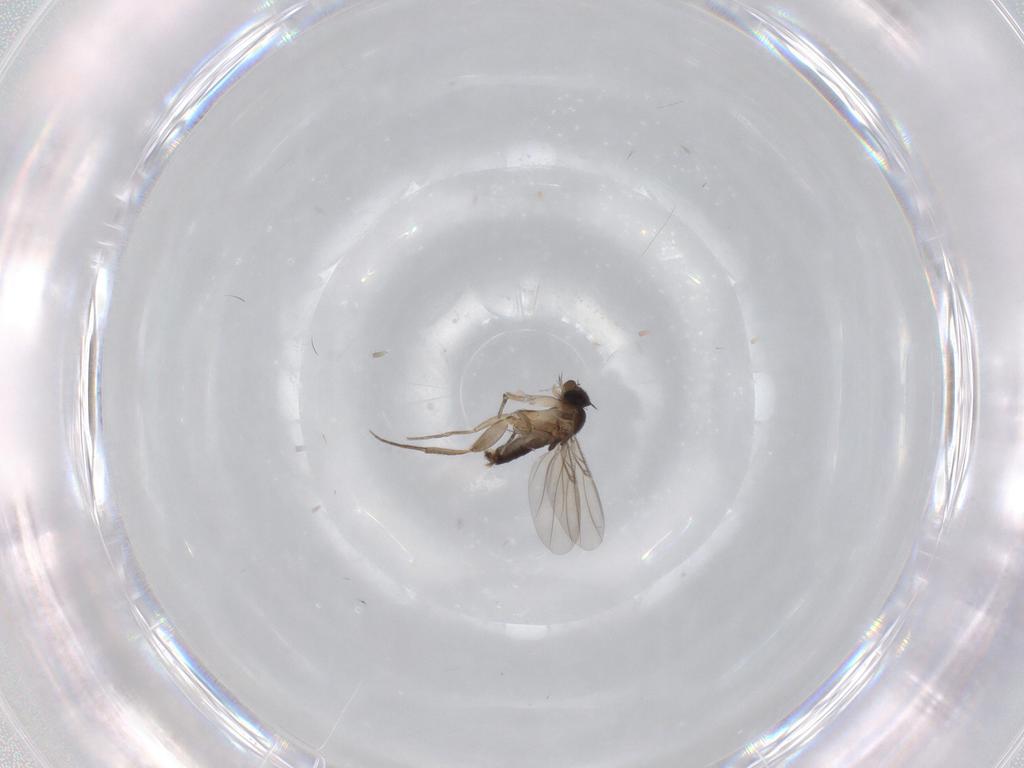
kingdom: Animalia
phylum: Arthropoda
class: Insecta
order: Diptera
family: Phoridae
